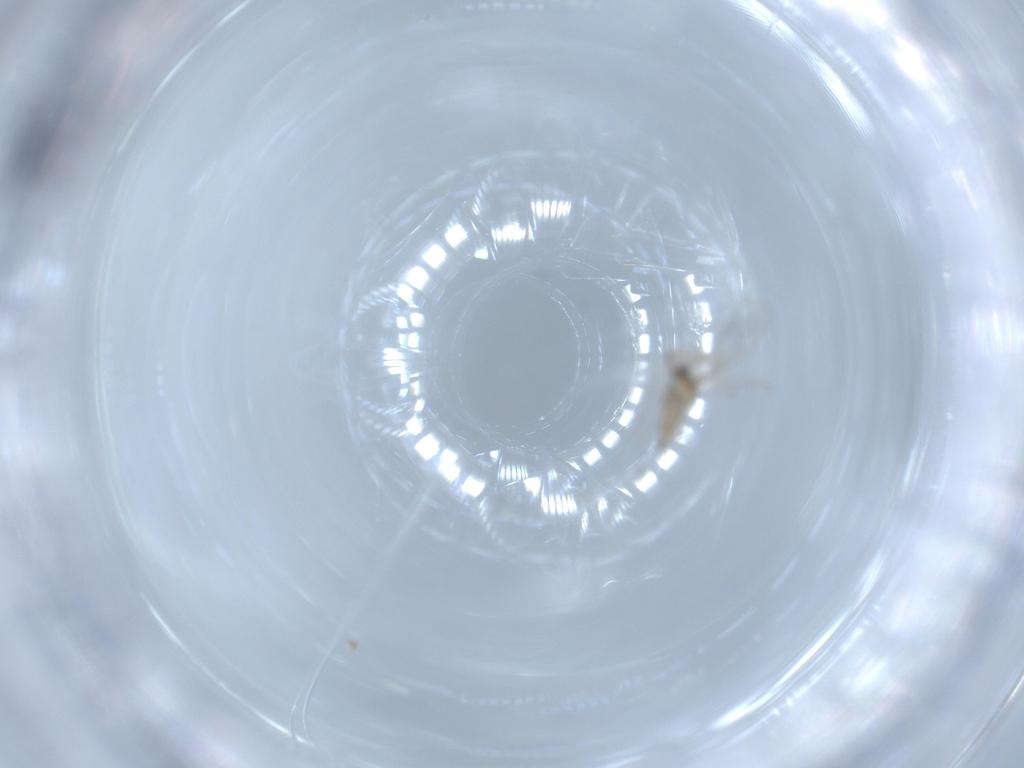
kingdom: Animalia
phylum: Arthropoda
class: Insecta
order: Diptera
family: Cecidomyiidae
